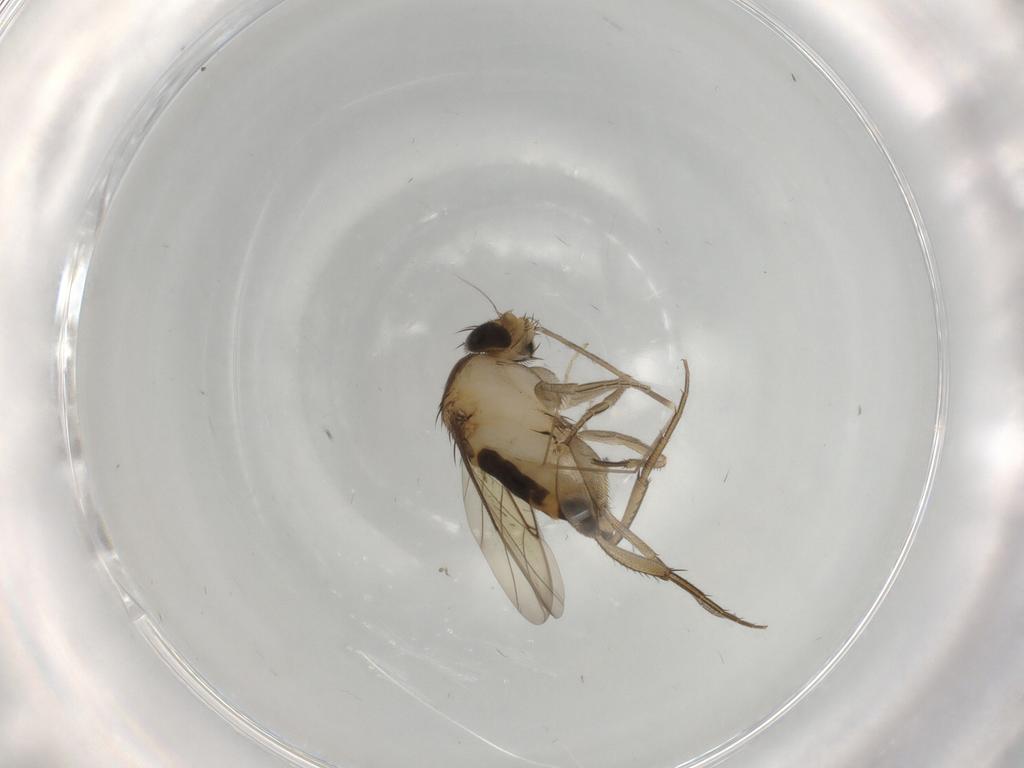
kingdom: Animalia
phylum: Arthropoda
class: Insecta
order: Diptera
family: Phoridae
